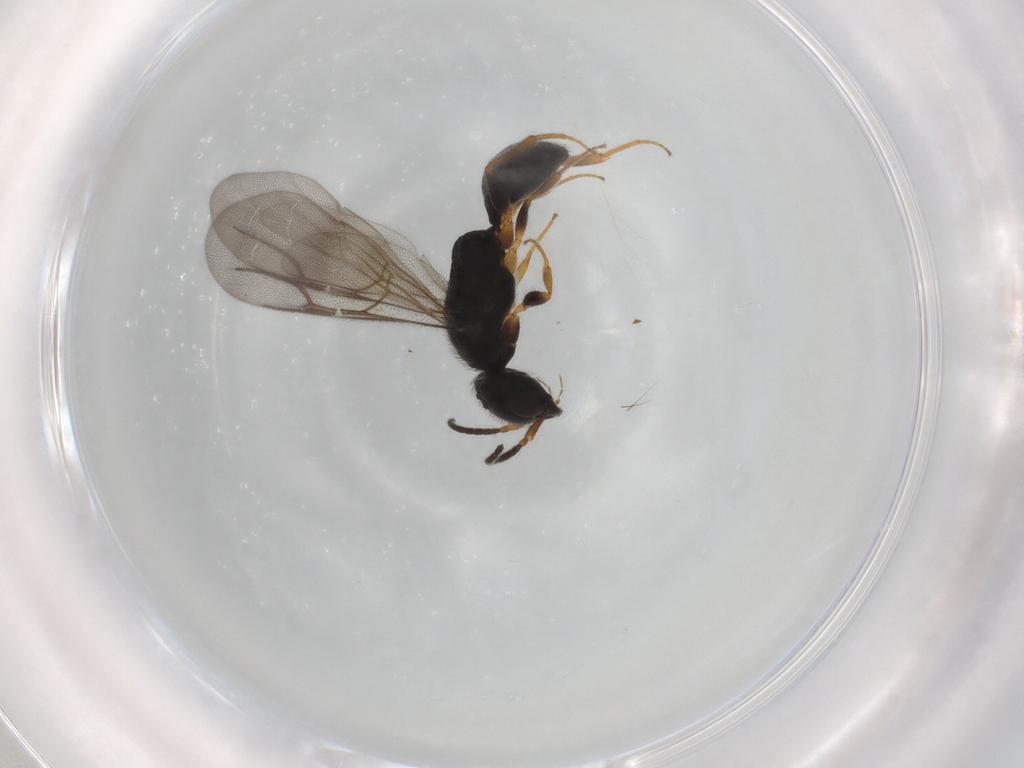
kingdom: Animalia
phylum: Arthropoda
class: Insecta
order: Hymenoptera
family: Bethylidae
